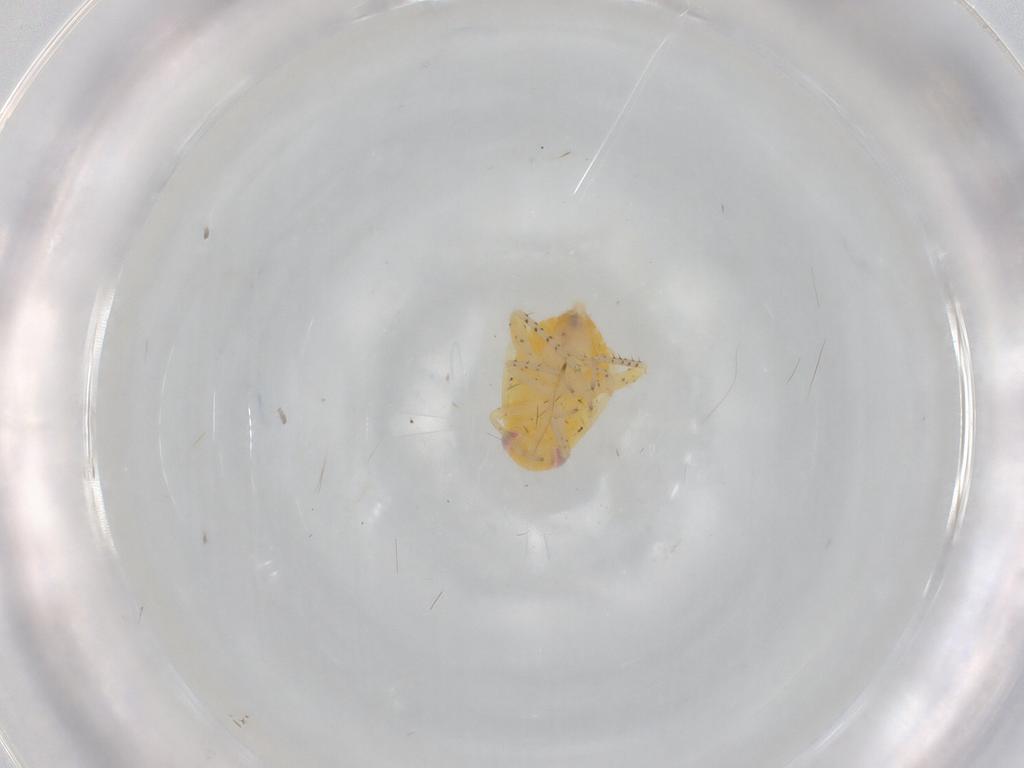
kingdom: Animalia
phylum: Arthropoda
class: Insecta
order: Hemiptera
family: Anthocoridae
